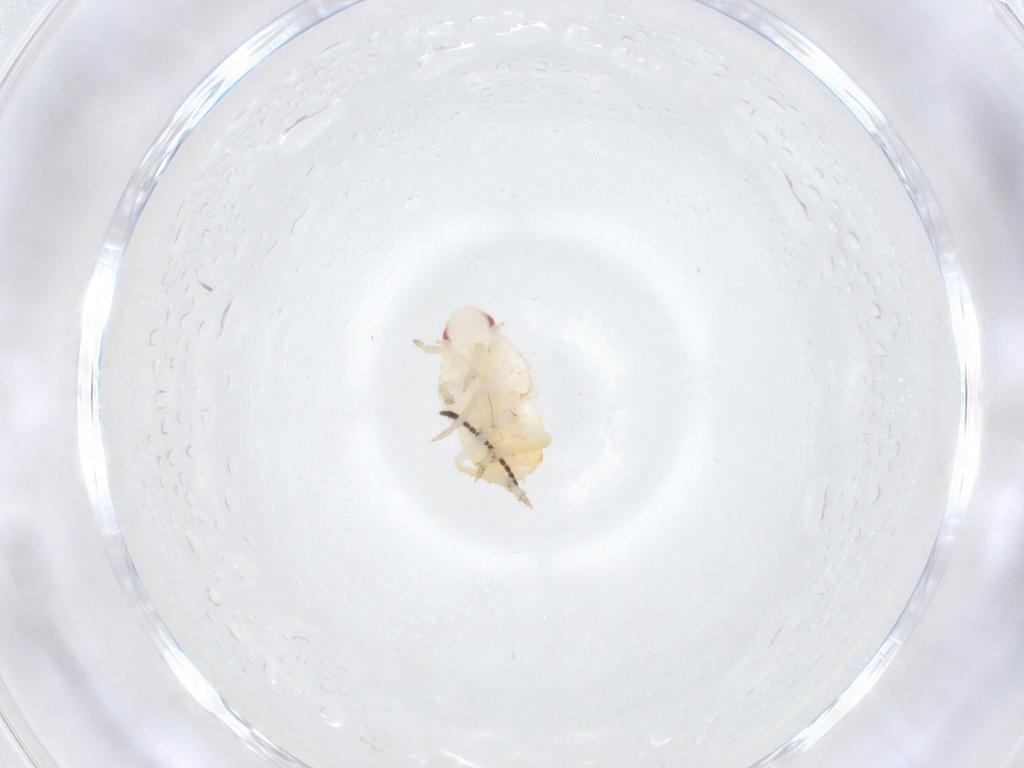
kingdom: Animalia
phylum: Arthropoda
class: Insecta
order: Hemiptera
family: Flatidae
